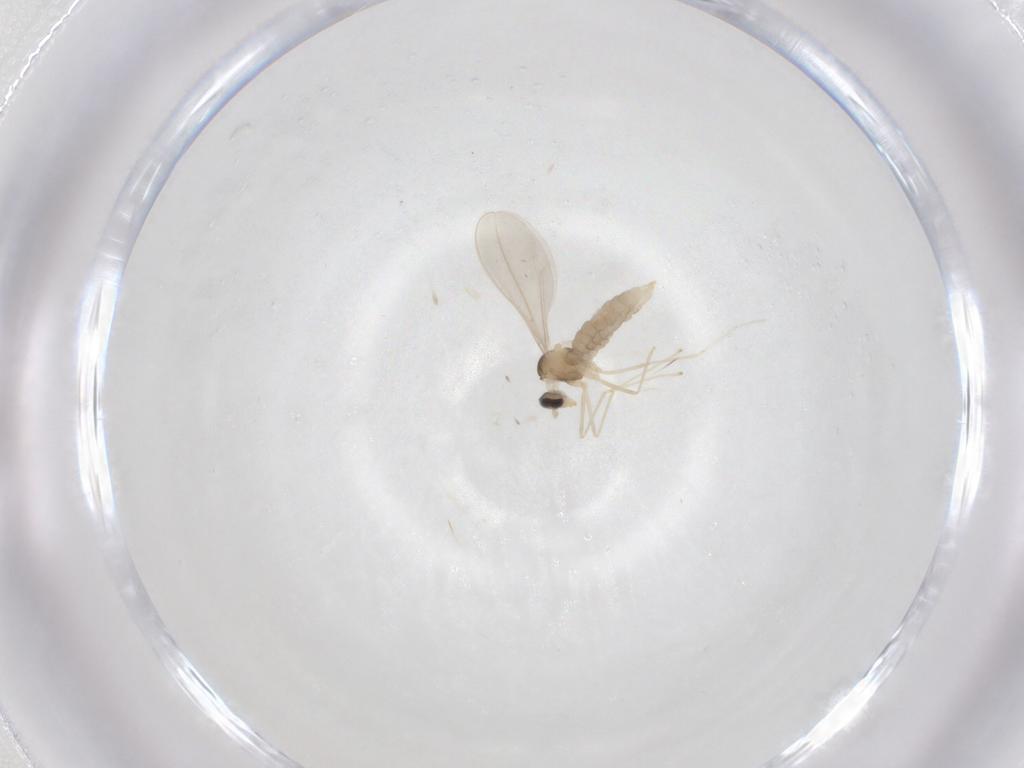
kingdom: Animalia
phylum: Arthropoda
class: Insecta
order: Diptera
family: Cecidomyiidae
